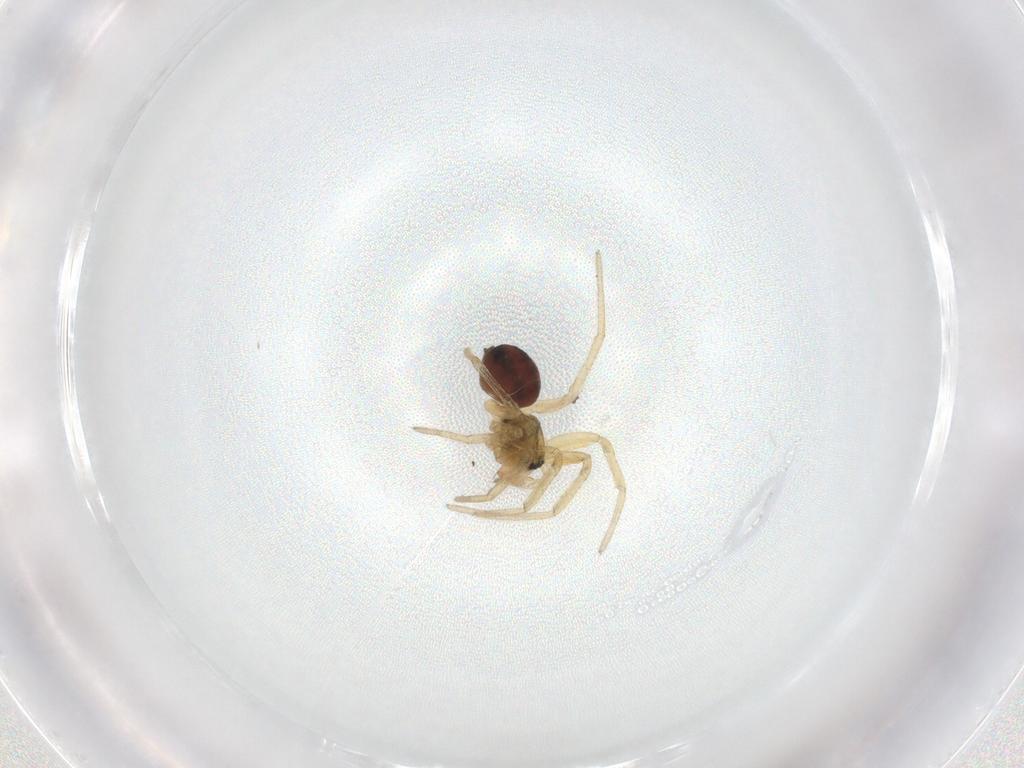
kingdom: Animalia
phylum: Arthropoda
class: Arachnida
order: Araneae
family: Linyphiidae
